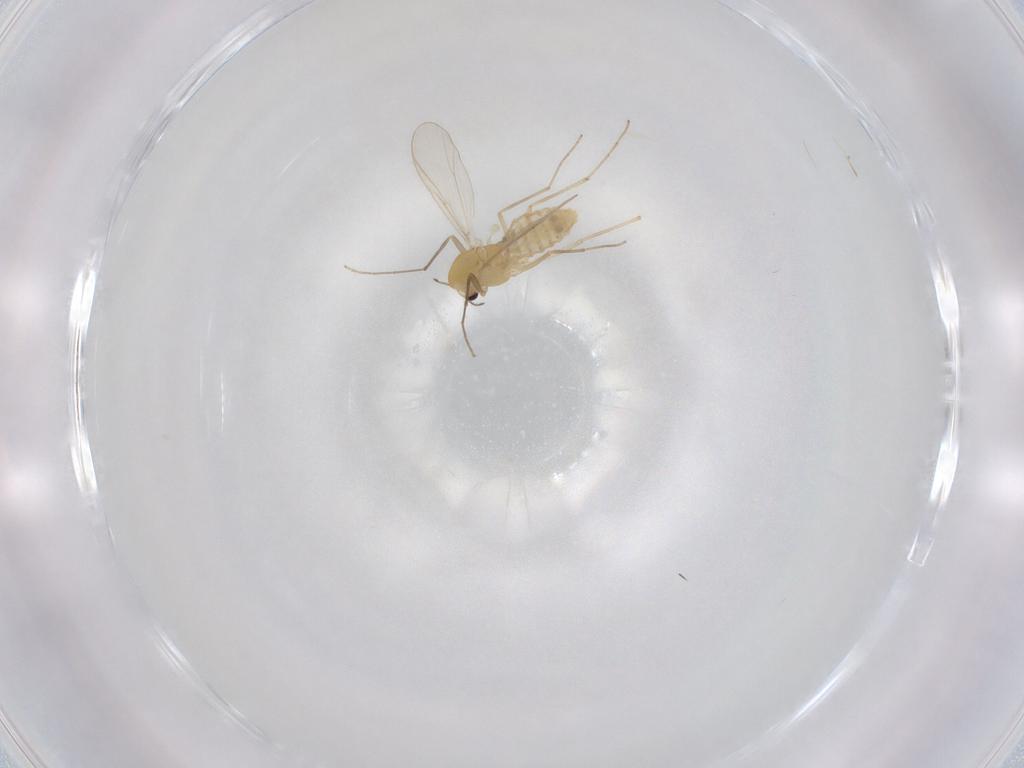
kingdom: Animalia
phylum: Arthropoda
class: Insecta
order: Diptera
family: Chironomidae
